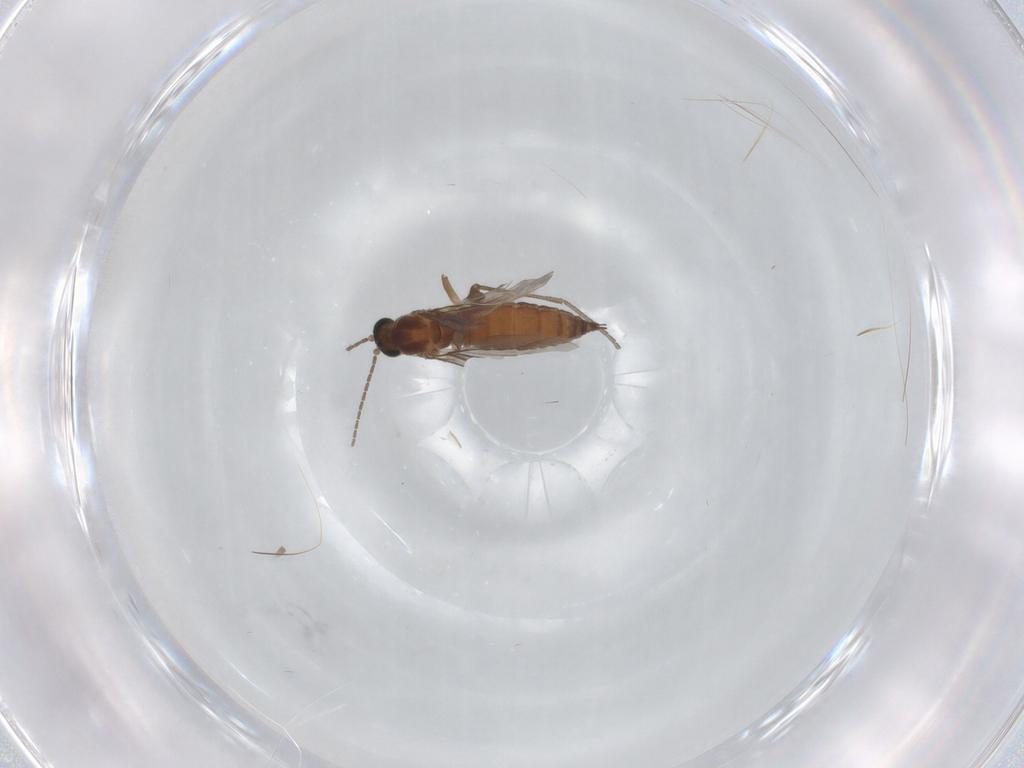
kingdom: Animalia
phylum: Arthropoda
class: Insecta
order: Diptera
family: Sciaridae
